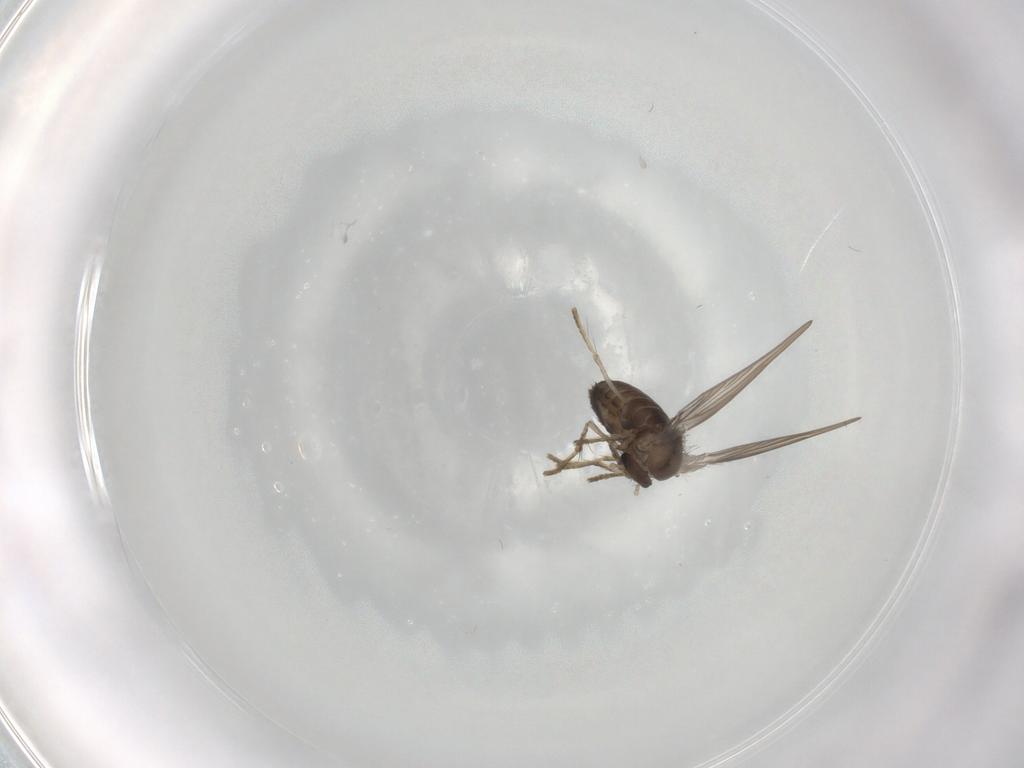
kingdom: Animalia
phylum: Arthropoda
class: Insecta
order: Diptera
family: Psychodidae
